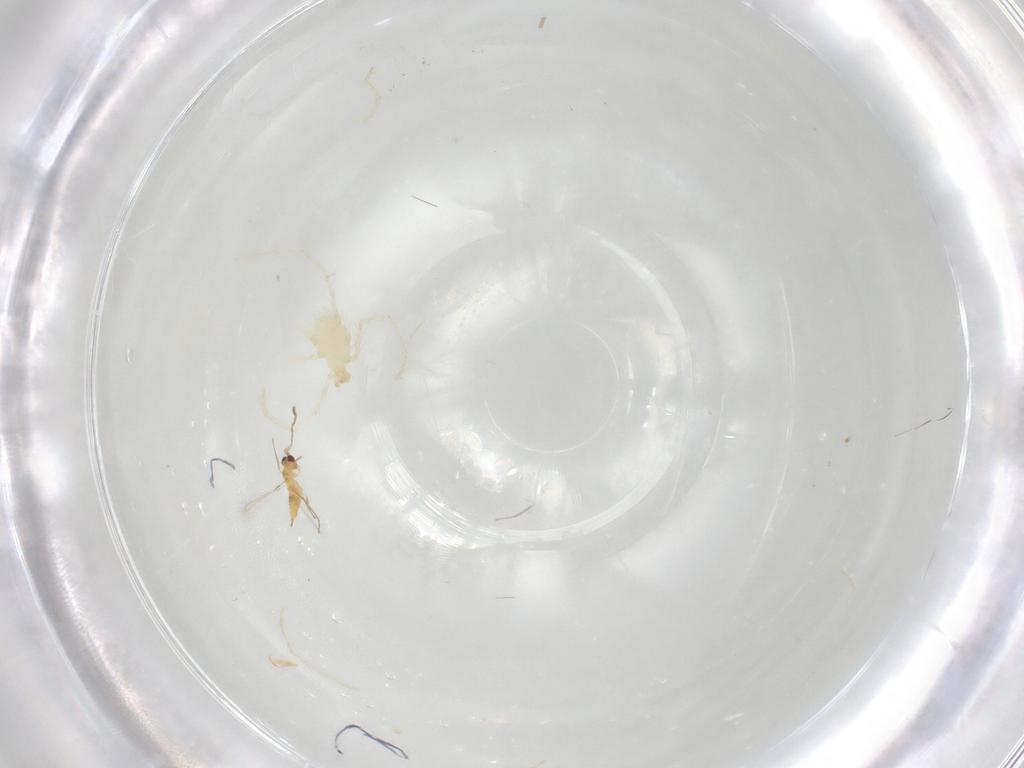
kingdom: Animalia
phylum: Arthropoda
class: Insecta
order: Hymenoptera
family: Mymaridae
